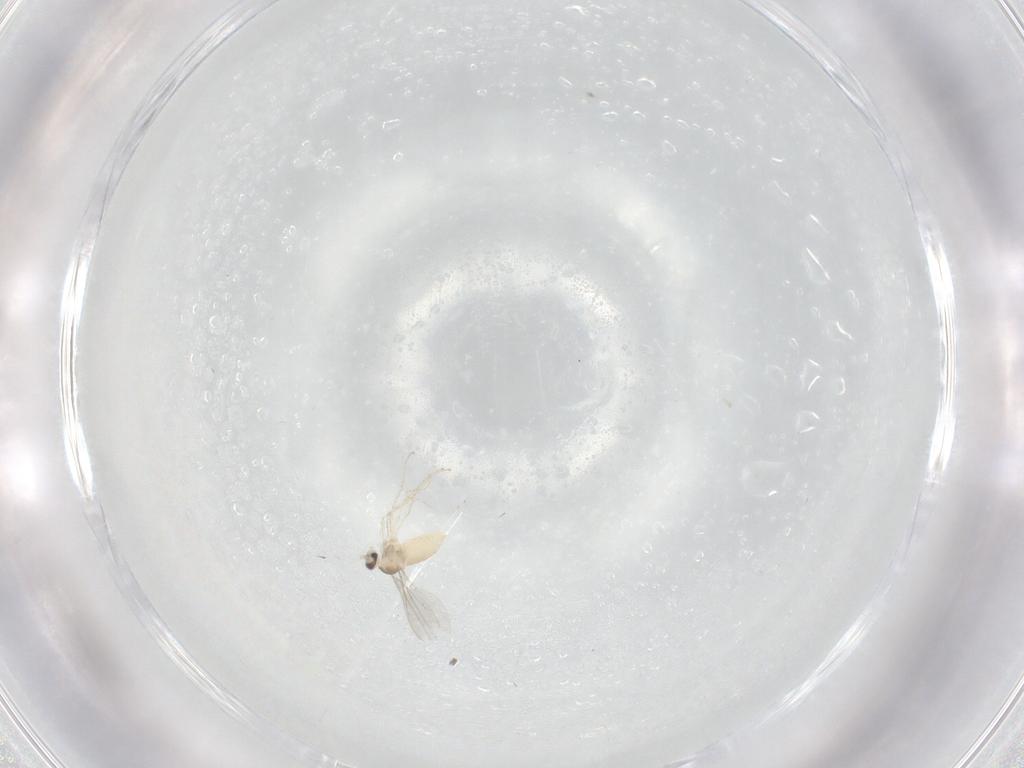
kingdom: Animalia
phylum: Arthropoda
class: Insecta
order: Diptera
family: Cecidomyiidae
